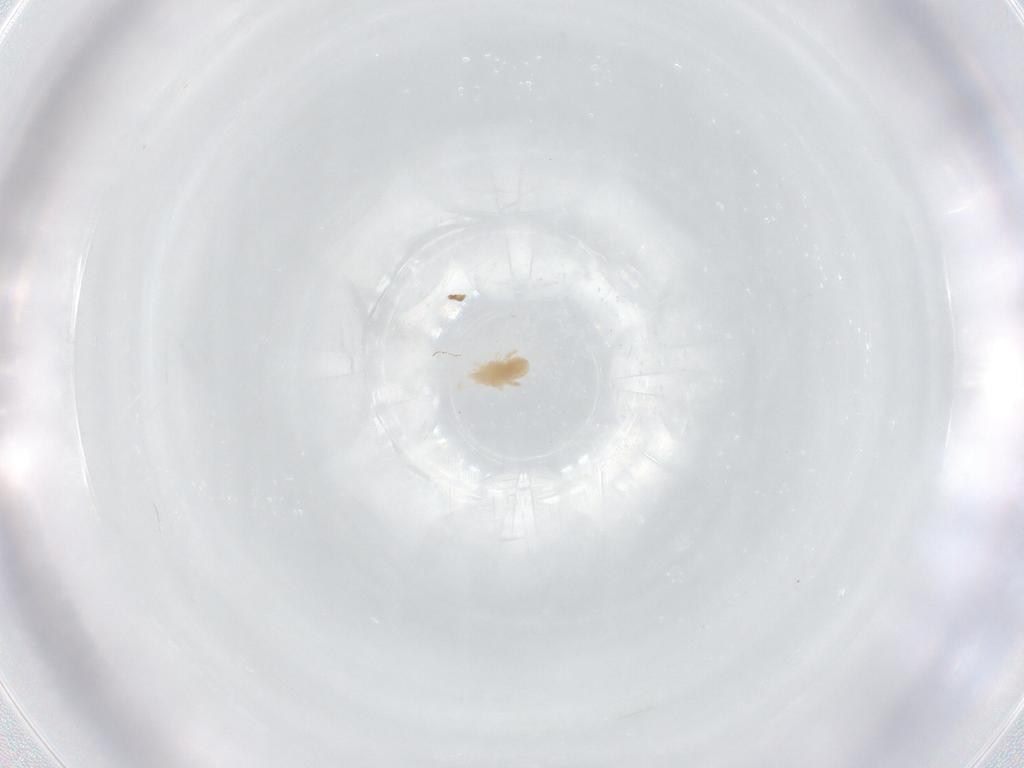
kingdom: Animalia
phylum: Arthropoda
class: Arachnida
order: Trombidiformes
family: Eupodidae
